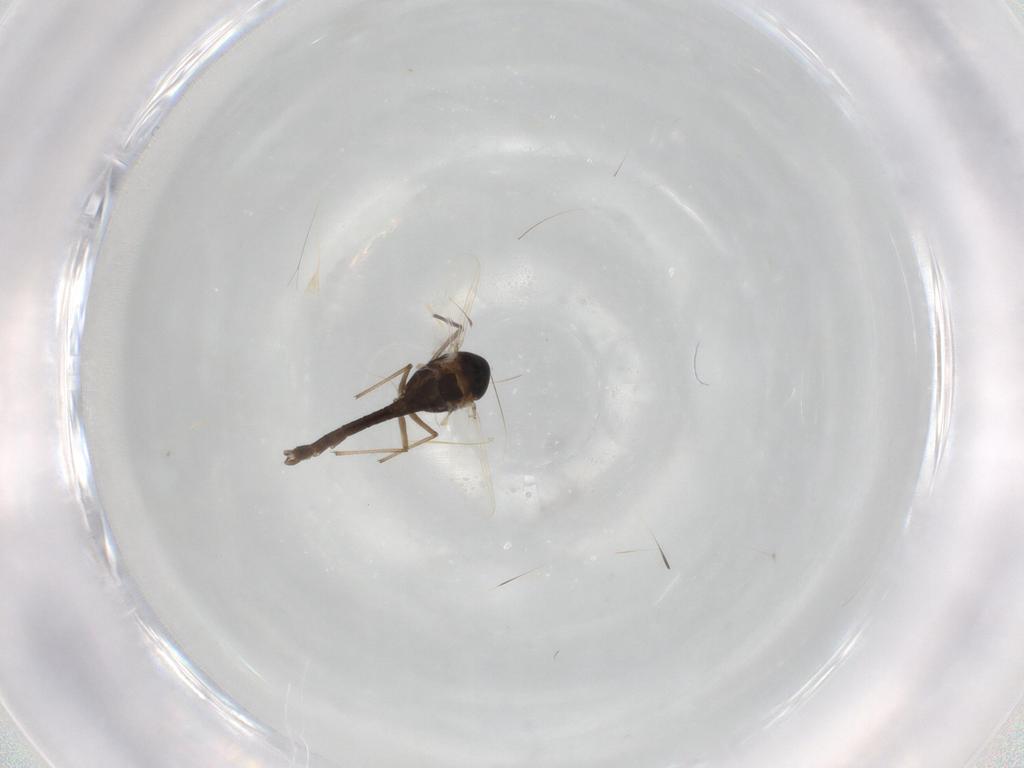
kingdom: Animalia
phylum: Arthropoda
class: Insecta
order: Diptera
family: Chironomidae
